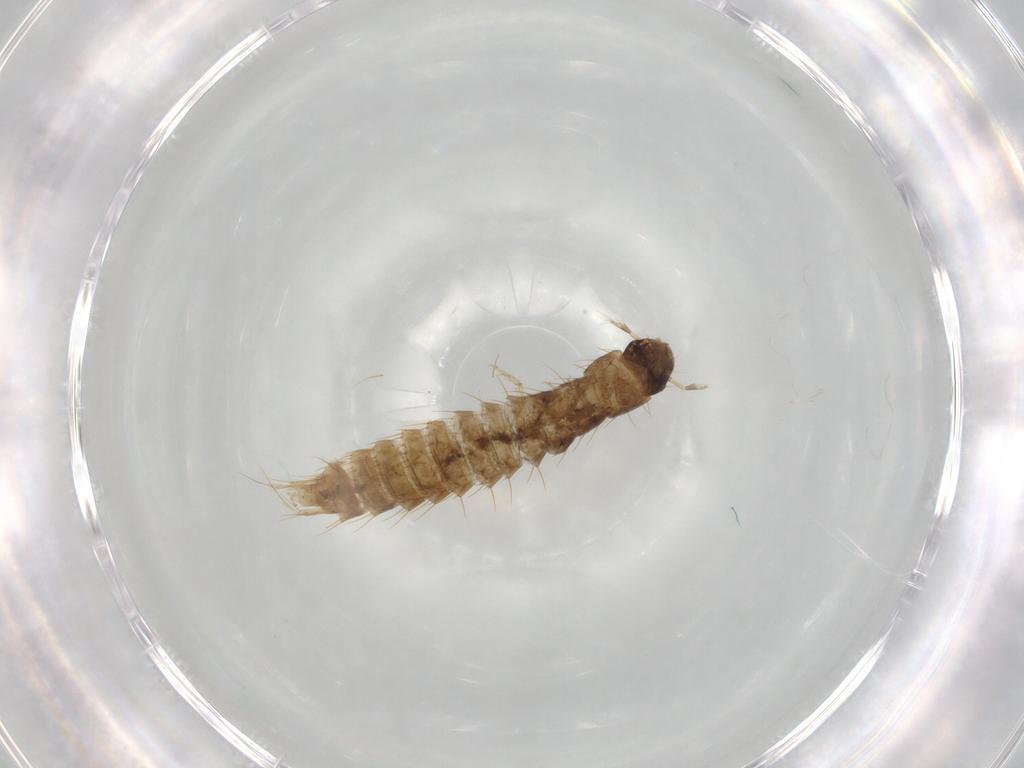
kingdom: Animalia
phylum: Arthropoda
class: Insecta
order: Coleoptera
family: Staphylinidae
